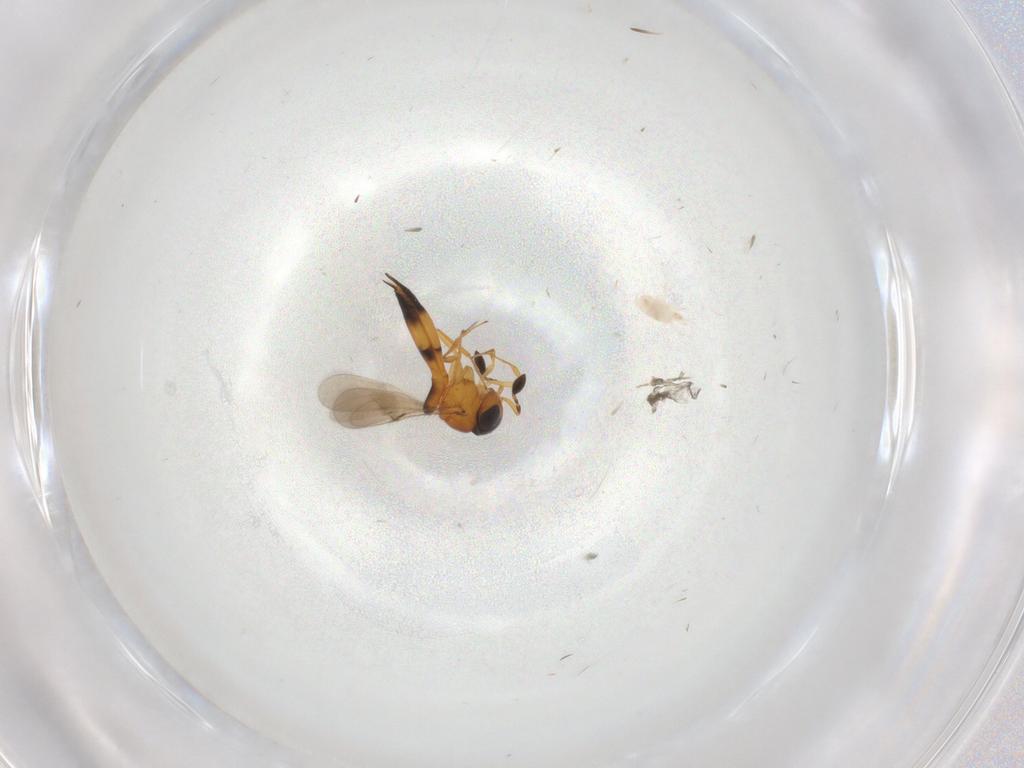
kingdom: Animalia
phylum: Arthropoda
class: Insecta
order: Hymenoptera
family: Scelionidae
